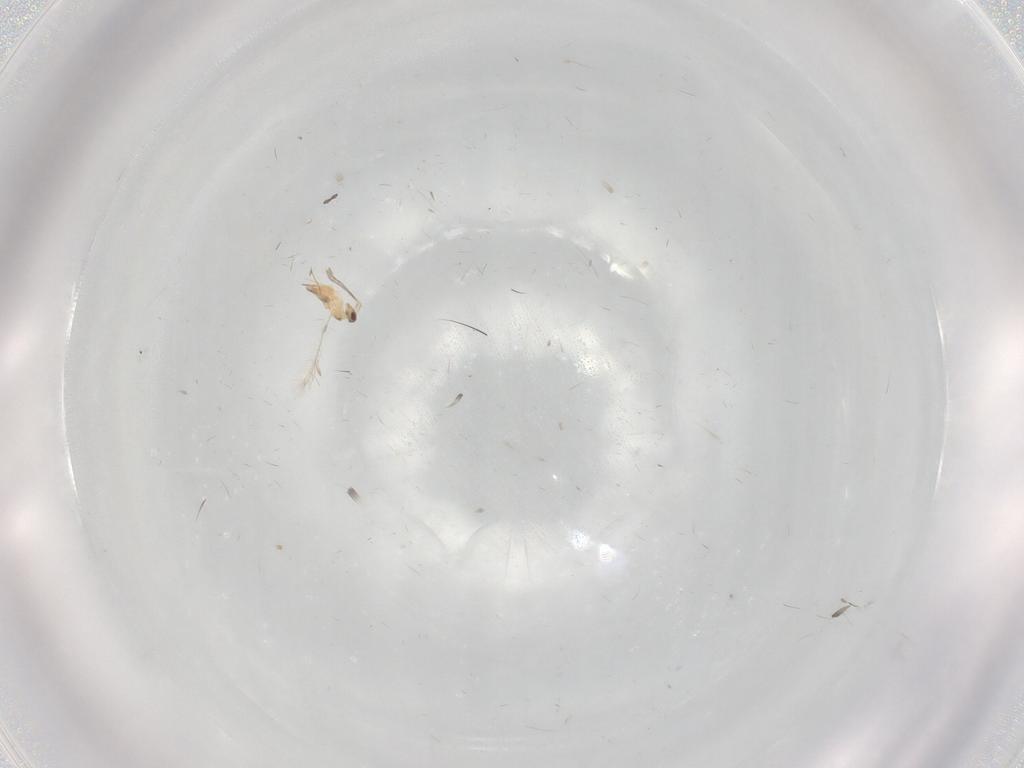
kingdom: Animalia
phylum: Arthropoda
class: Insecta
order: Hymenoptera
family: Mymaridae
